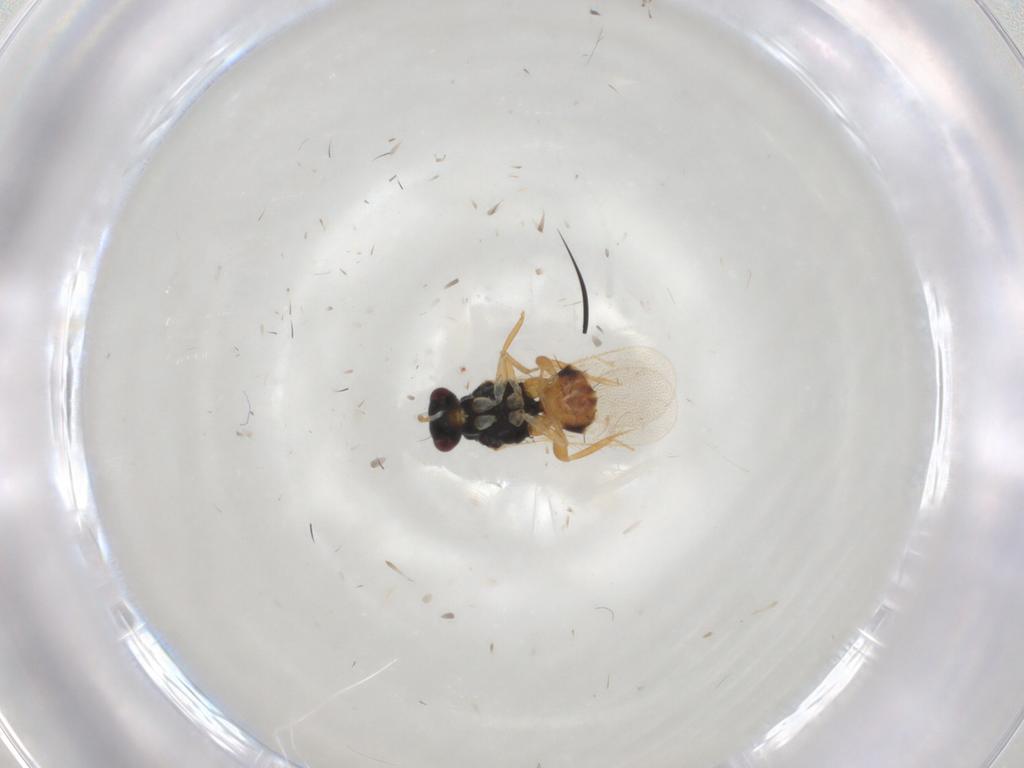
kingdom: Animalia
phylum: Arthropoda
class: Insecta
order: Hymenoptera
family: Eulophidae
